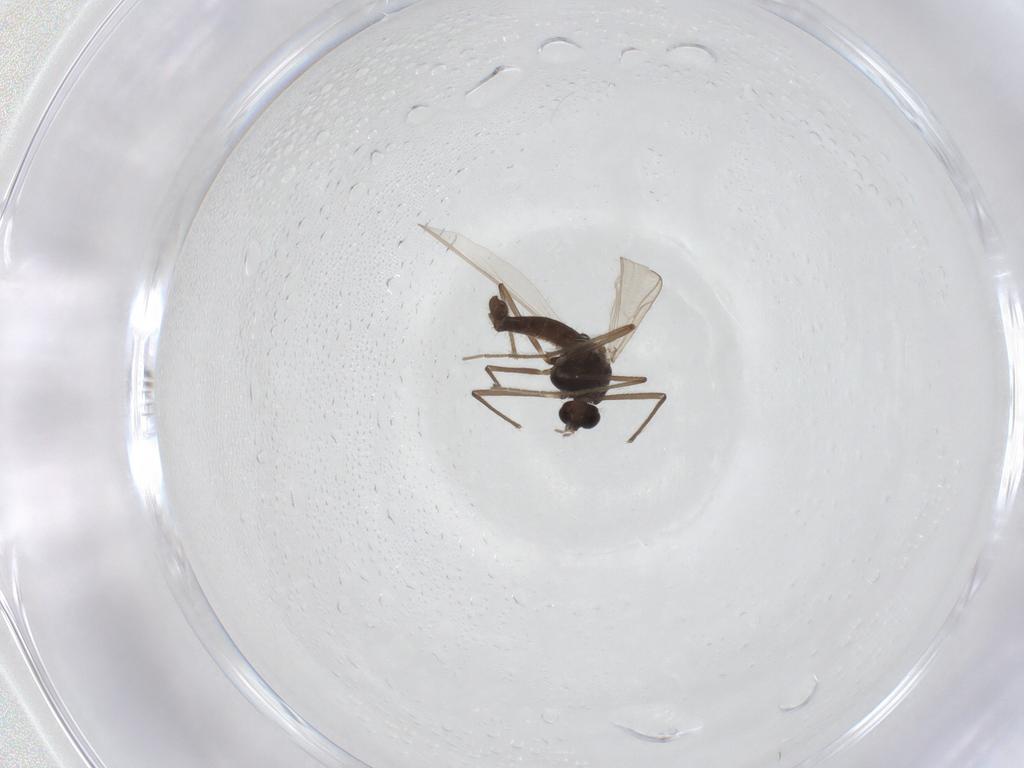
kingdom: Animalia
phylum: Arthropoda
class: Insecta
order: Diptera
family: Chironomidae
